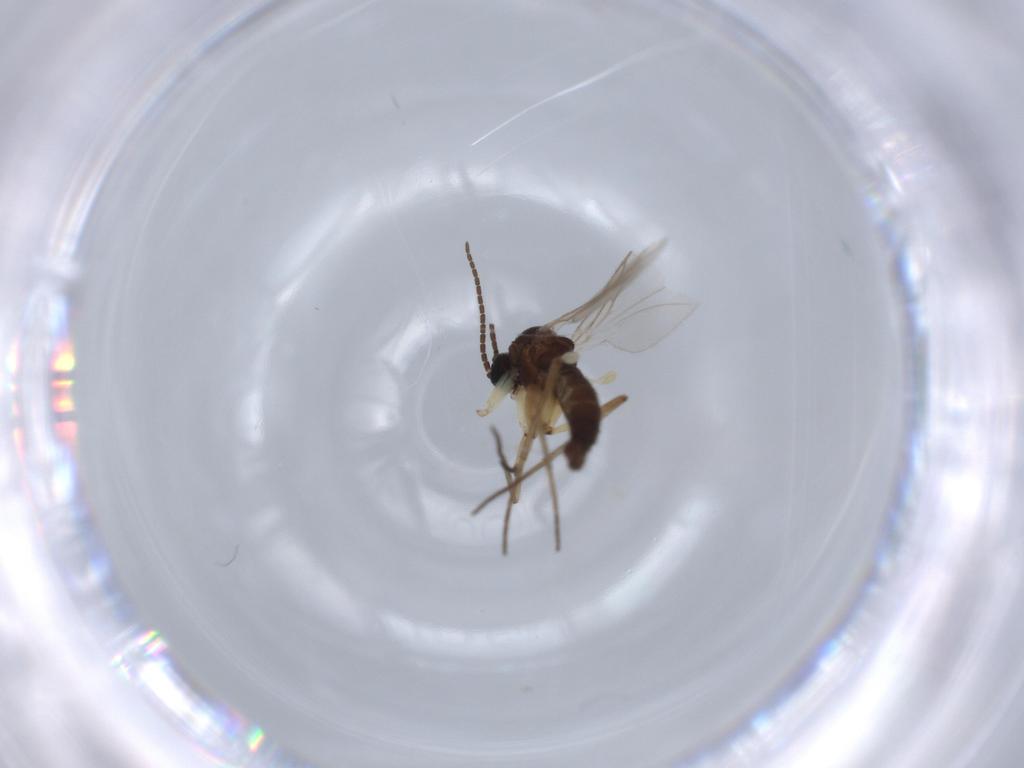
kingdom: Animalia
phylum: Arthropoda
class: Insecta
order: Diptera
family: Sciaridae
